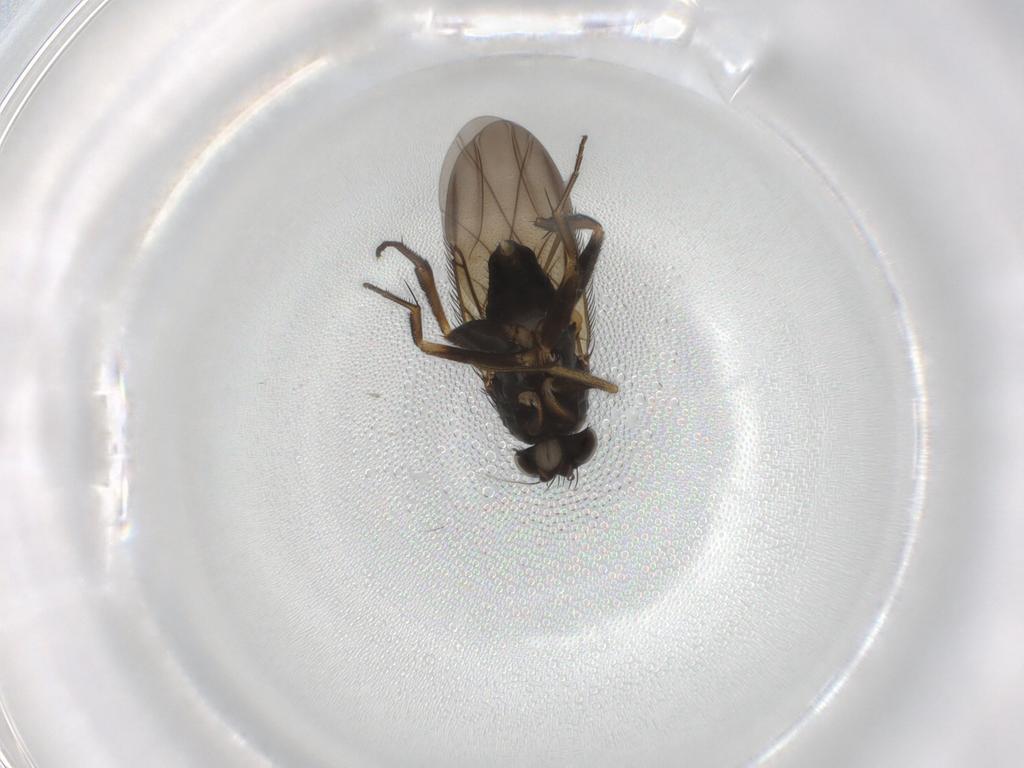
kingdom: Animalia
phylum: Arthropoda
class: Insecta
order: Diptera
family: Phoridae
